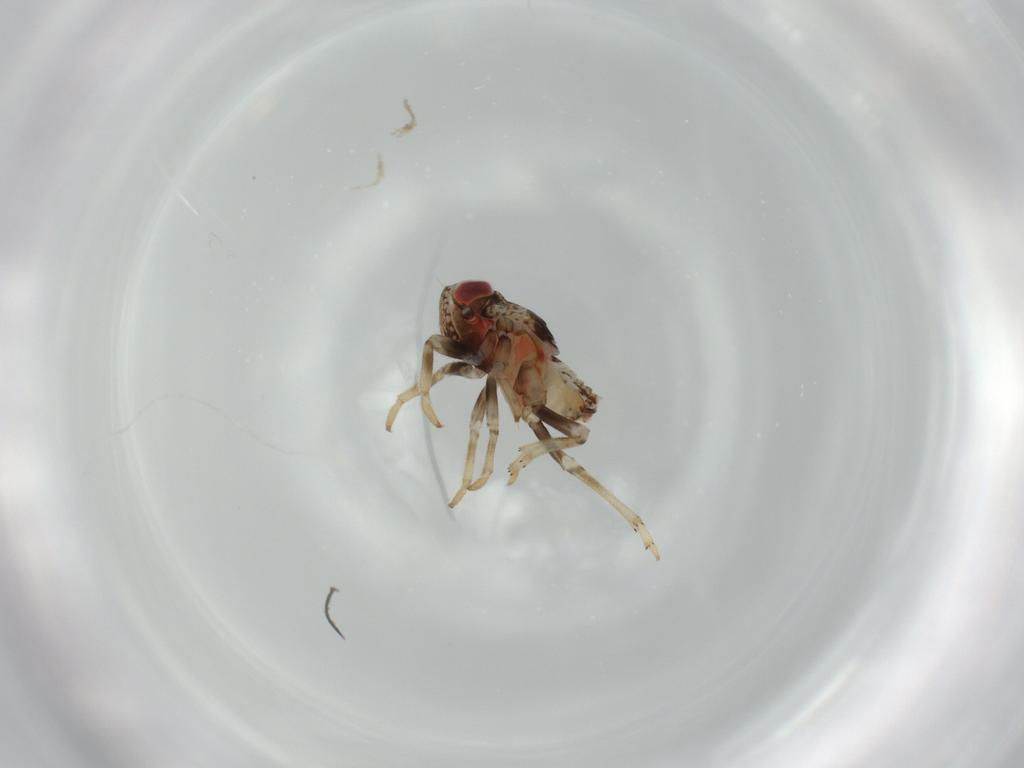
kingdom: Animalia
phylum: Arthropoda
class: Insecta
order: Hemiptera
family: Issidae
